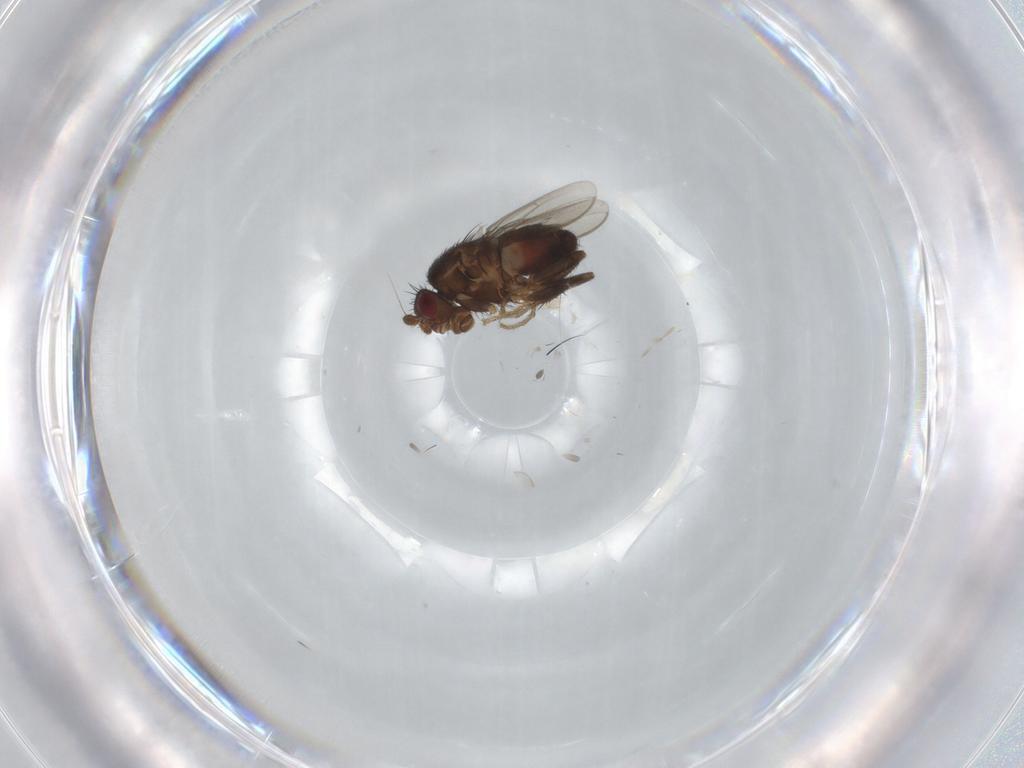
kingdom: Animalia
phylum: Arthropoda
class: Insecta
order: Diptera
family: Sphaeroceridae
